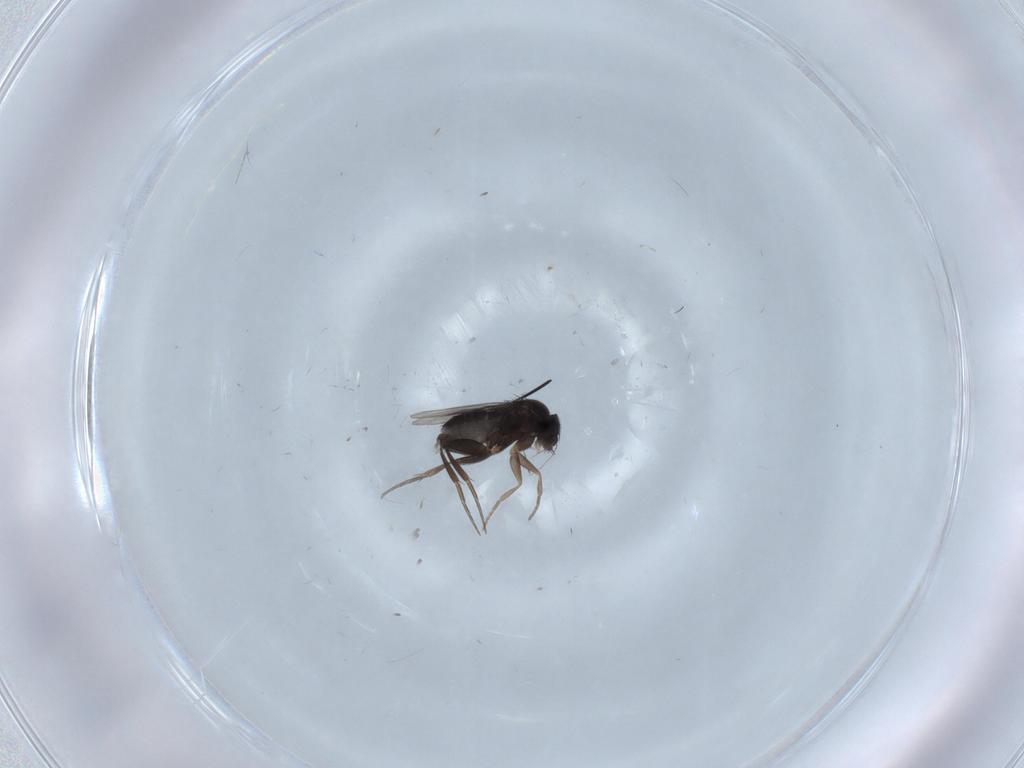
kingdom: Animalia
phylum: Arthropoda
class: Insecta
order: Diptera
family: Phoridae
